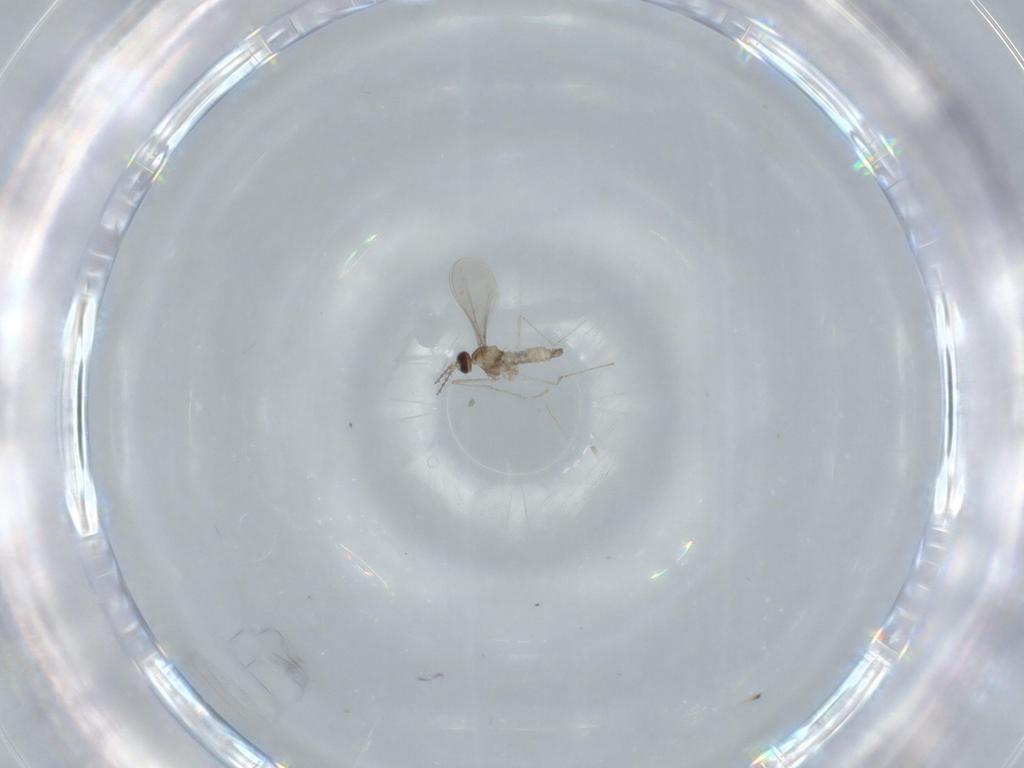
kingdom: Animalia
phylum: Arthropoda
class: Insecta
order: Diptera
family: Cecidomyiidae
